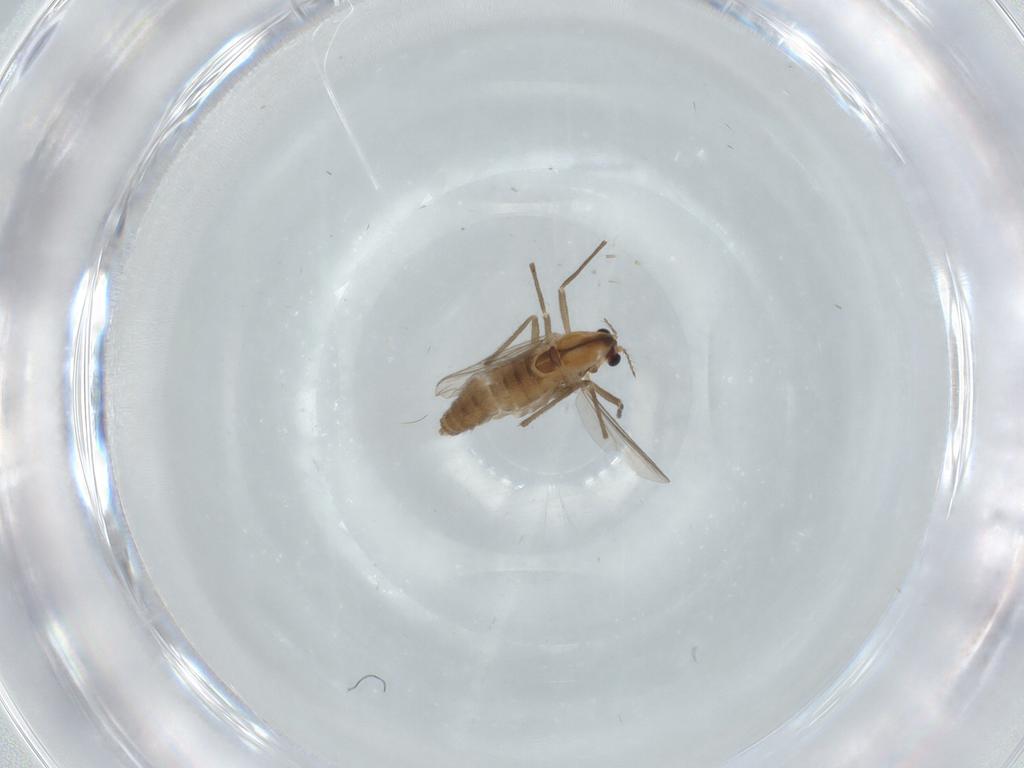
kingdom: Animalia
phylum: Arthropoda
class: Insecta
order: Diptera
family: Chironomidae
